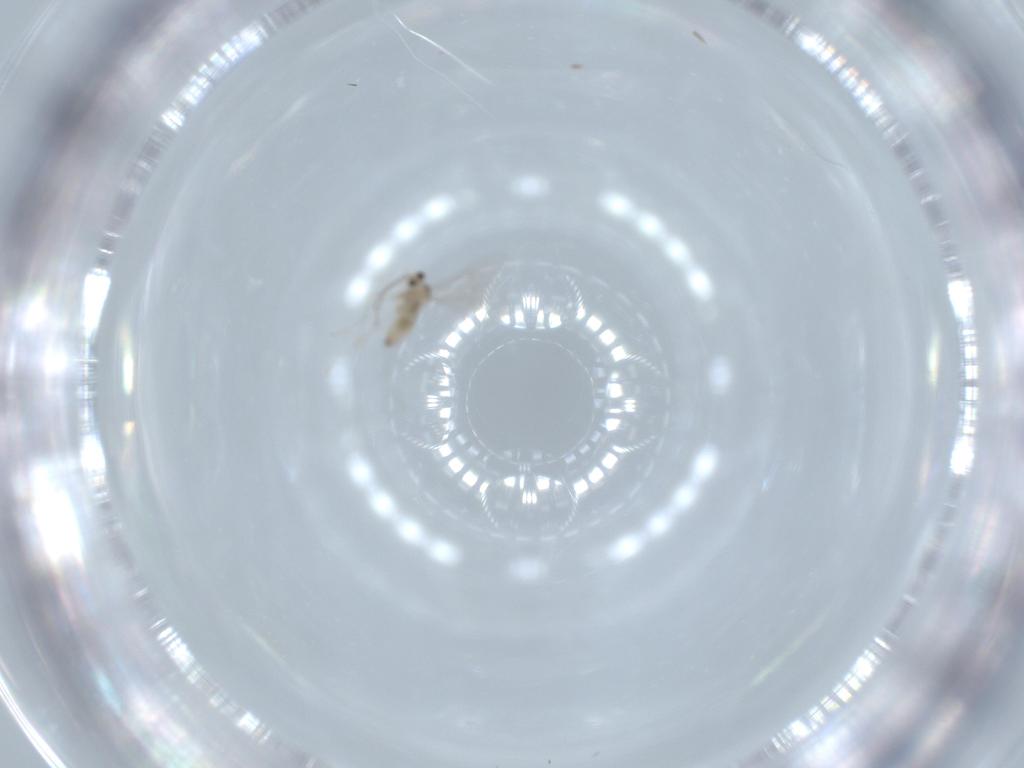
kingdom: Animalia
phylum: Arthropoda
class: Insecta
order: Diptera
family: Cecidomyiidae
